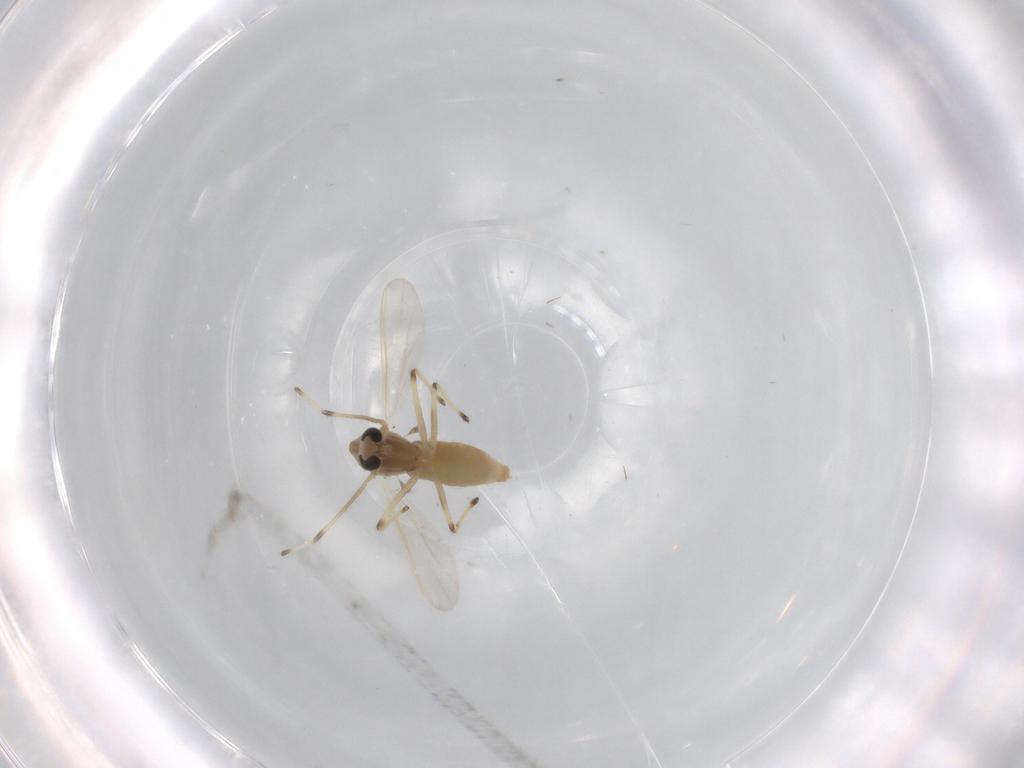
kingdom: Animalia
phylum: Arthropoda
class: Insecta
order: Diptera
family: Chironomidae
